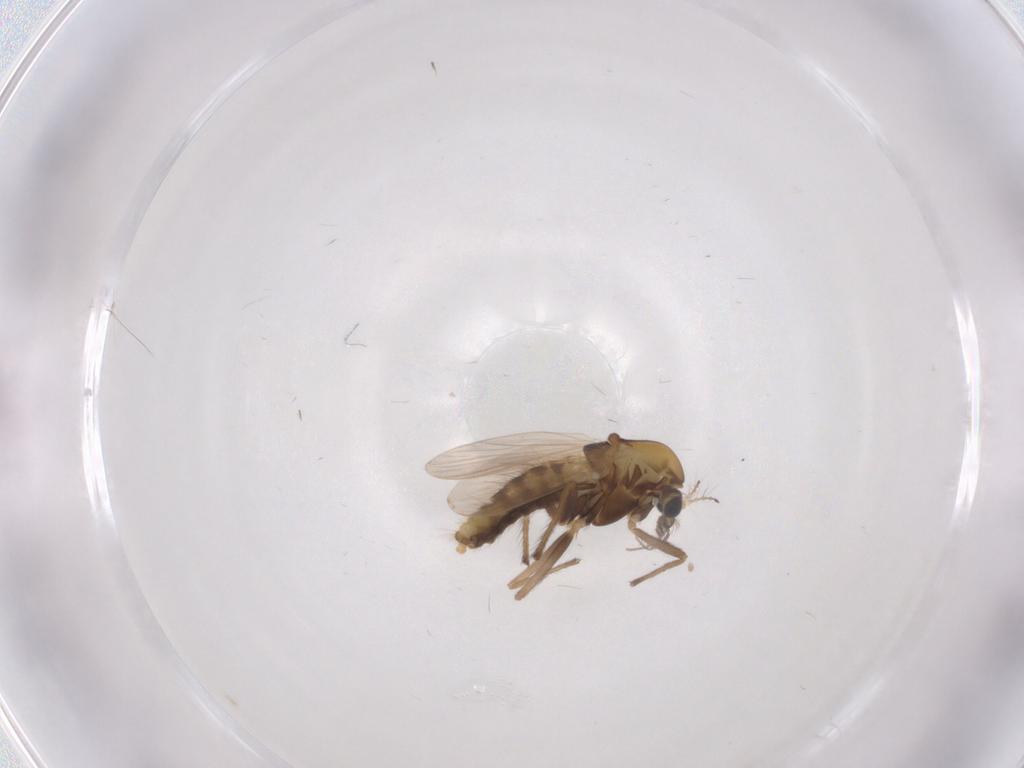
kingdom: Animalia
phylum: Arthropoda
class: Insecta
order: Diptera
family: Chironomidae
